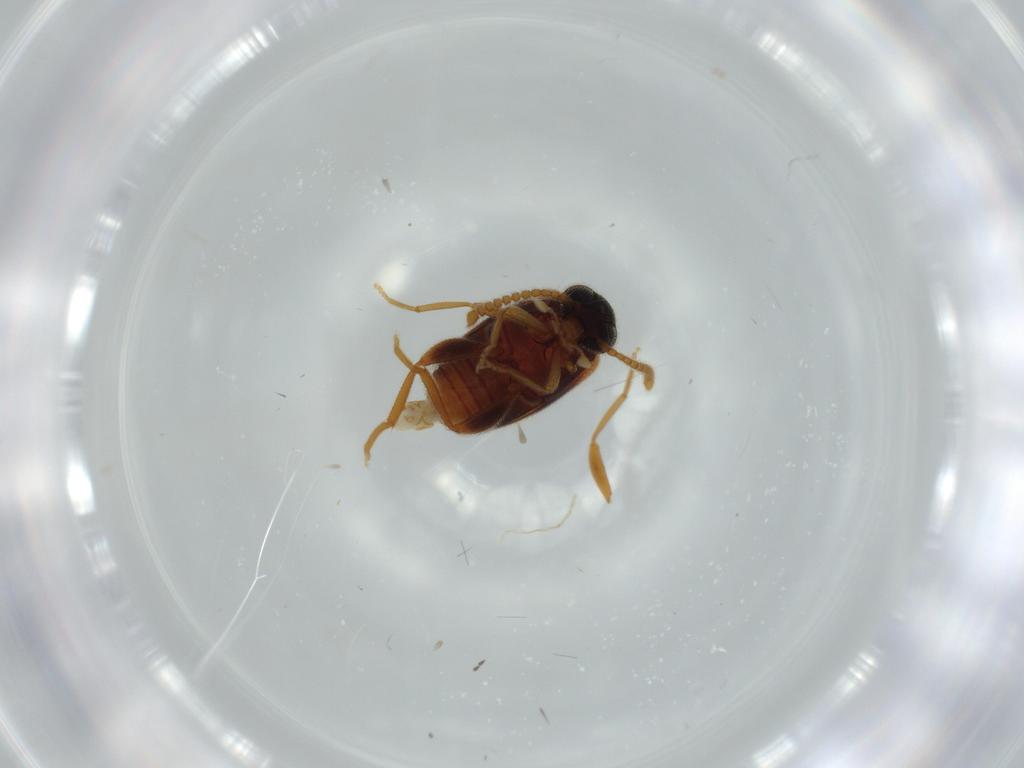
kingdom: Animalia
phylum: Arthropoda
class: Insecta
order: Coleoptera
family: Aderidae
